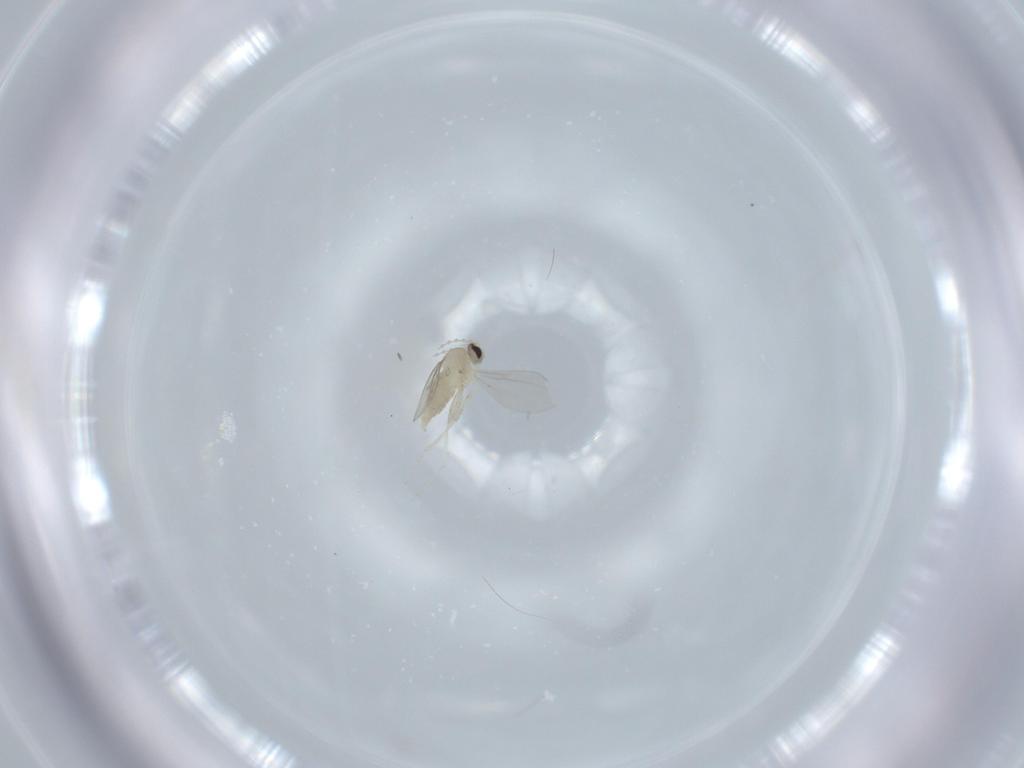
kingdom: Animalia
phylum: Arthropoda
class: Insecta
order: Diptera
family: Cecidomyiidae
